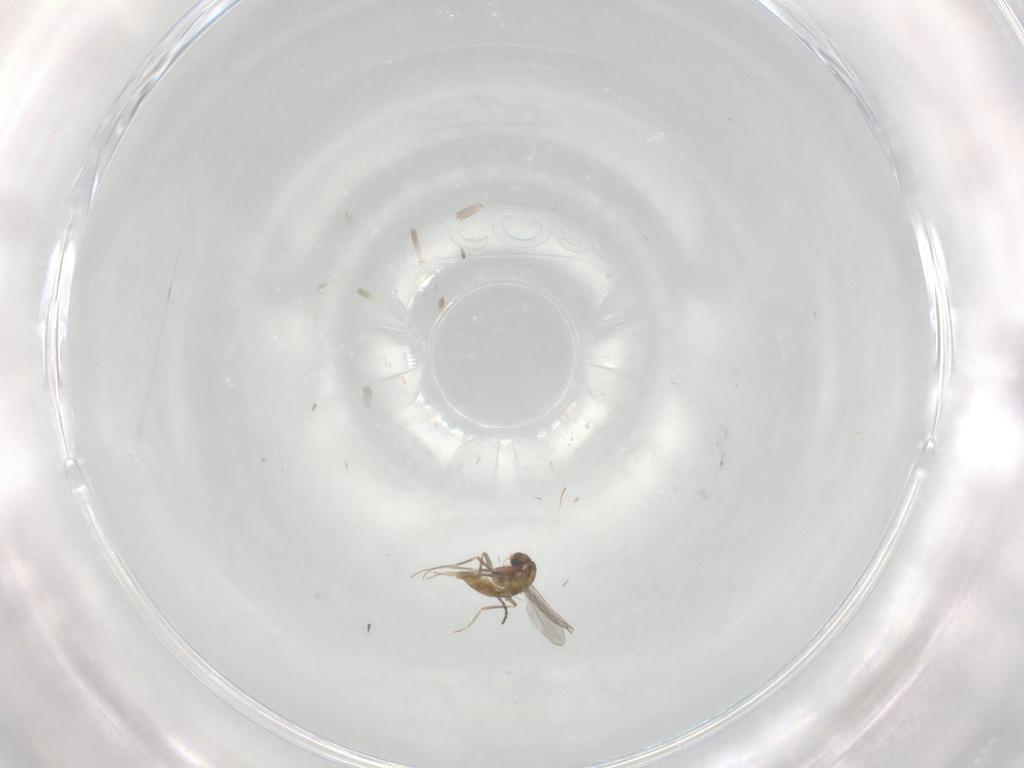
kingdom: Animalia
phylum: Arthropoda
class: Insecta
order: Diptera
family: Cecidomyiidae
